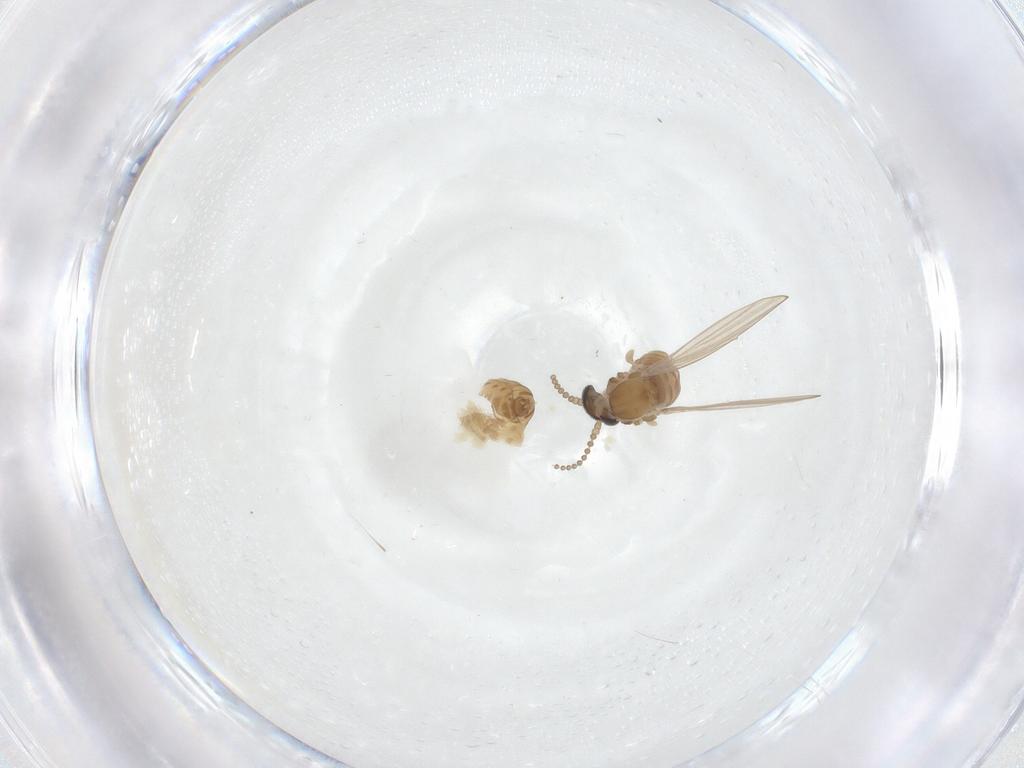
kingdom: Animalia
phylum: Arthropoda
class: Insecta
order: Diptera
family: Psychodidae
